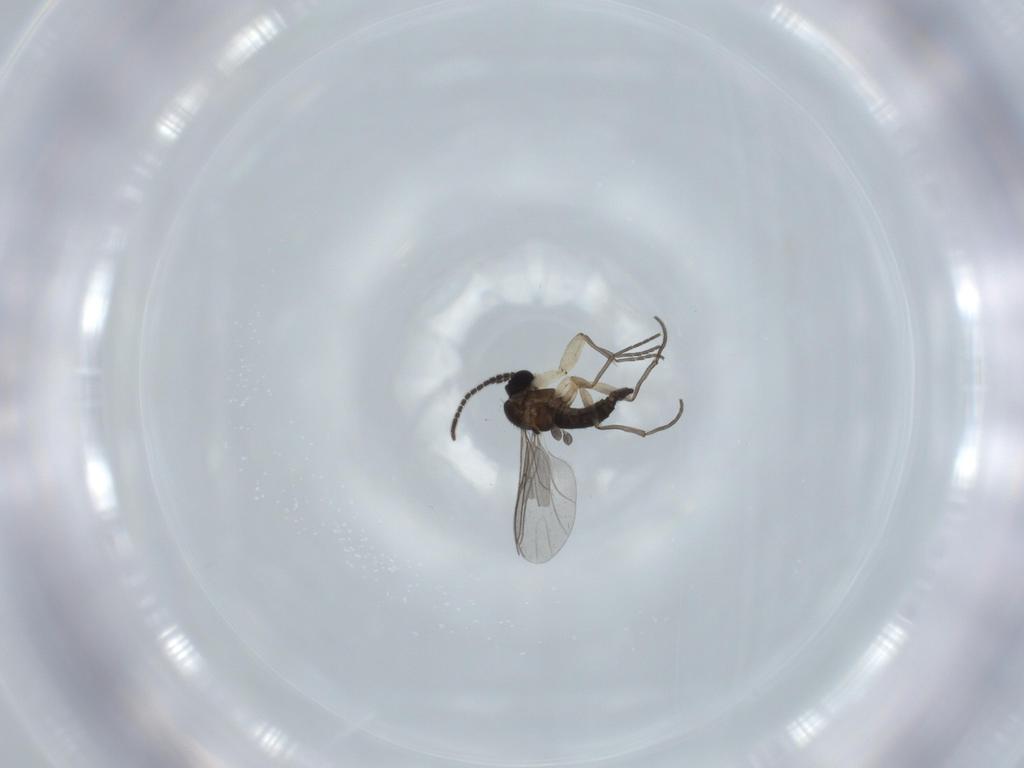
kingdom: Animalia
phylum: Arthropoda
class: Insecta
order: Diptera
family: Sciaridae
